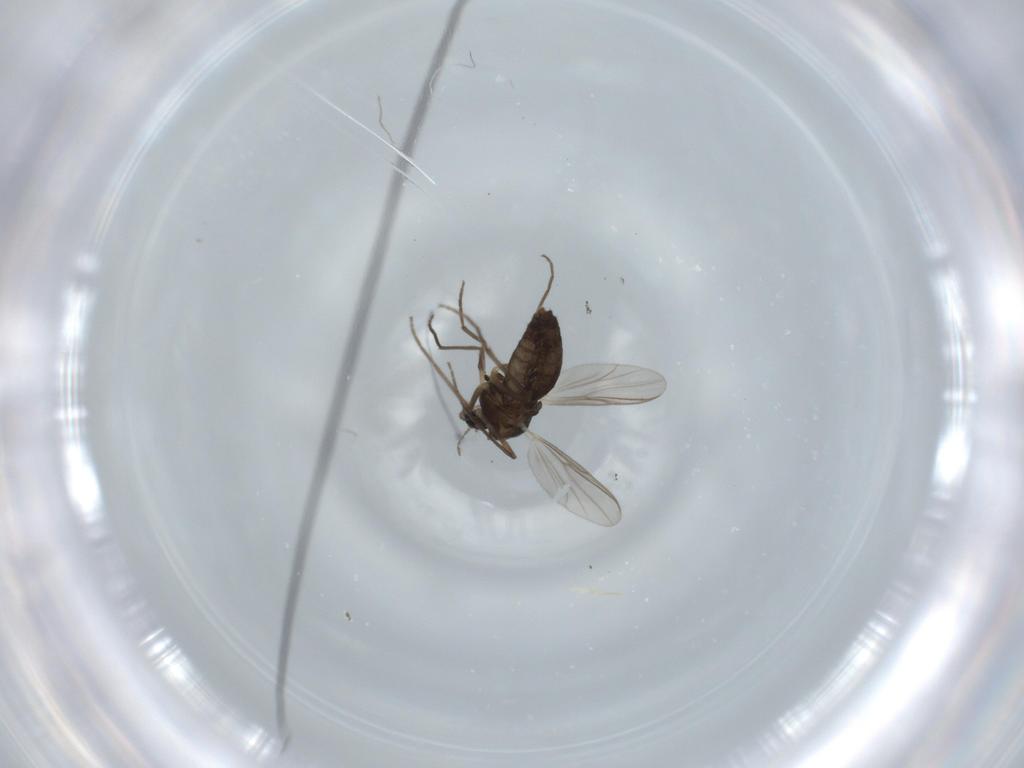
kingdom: Animalia
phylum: Arthropoda
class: Insecta
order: Diptera
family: Chironomidae
